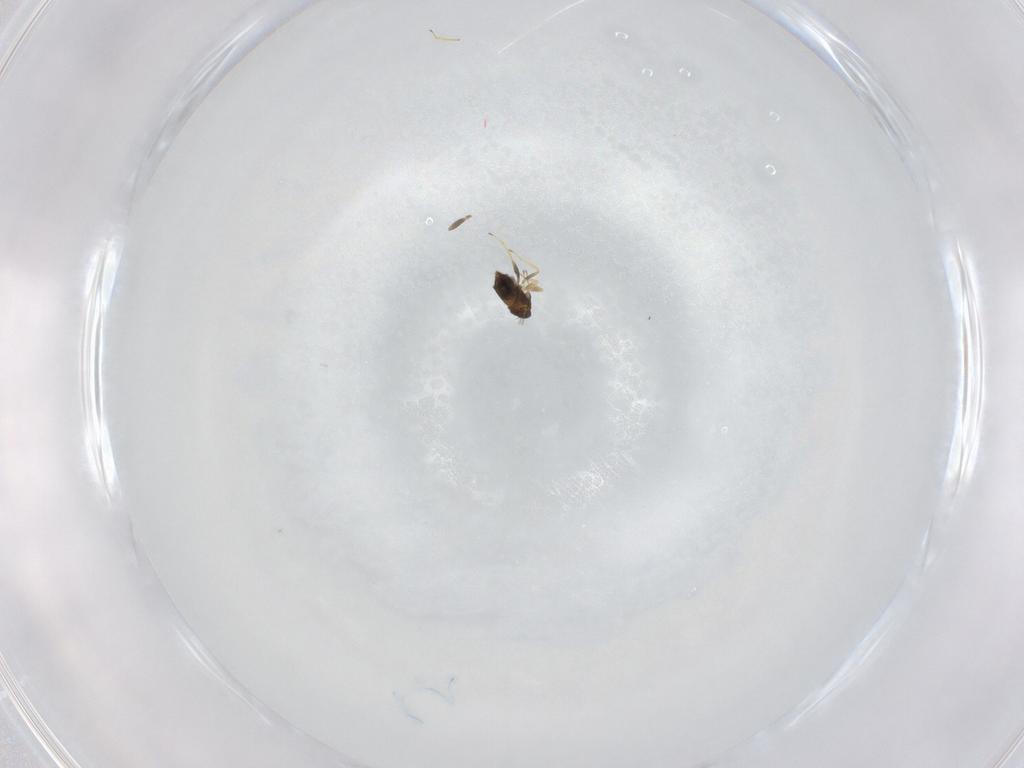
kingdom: Animalia
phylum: Arthropoda
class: Insecta
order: Hymenoptera
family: Trichogrammatidae
